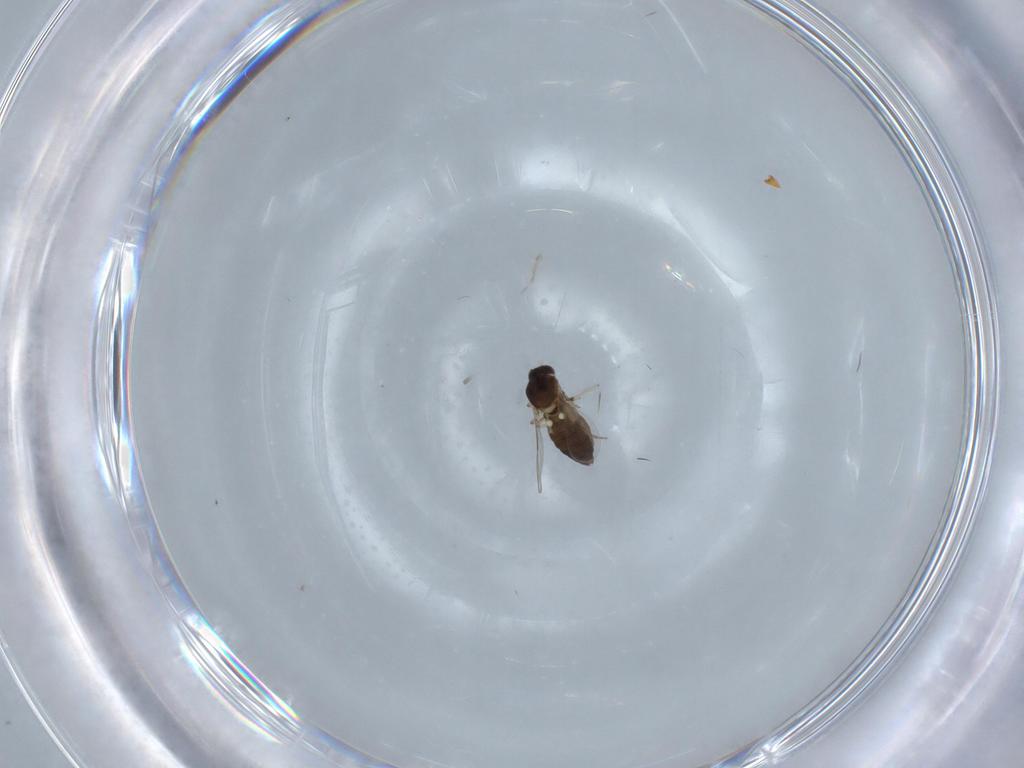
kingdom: Animalia
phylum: Arthropoda
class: Insecta
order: Diptera
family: Ceratopogonidae
